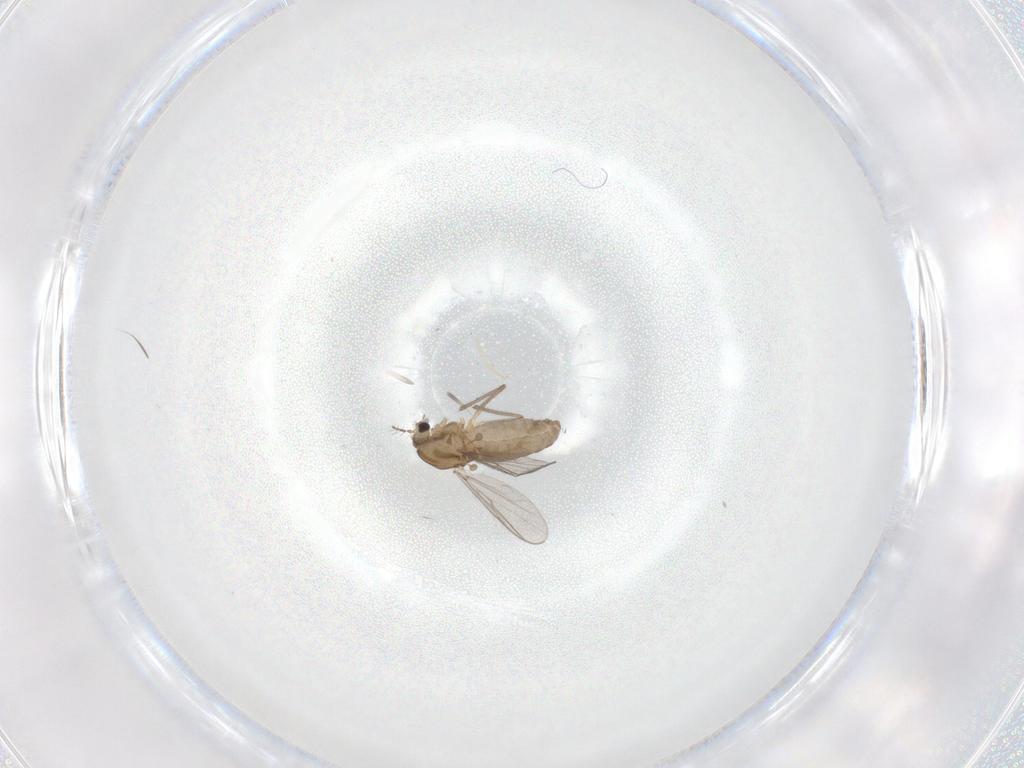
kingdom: Animalia
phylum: Arthropoda
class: Insecta
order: Diptera
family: Chironomidae
